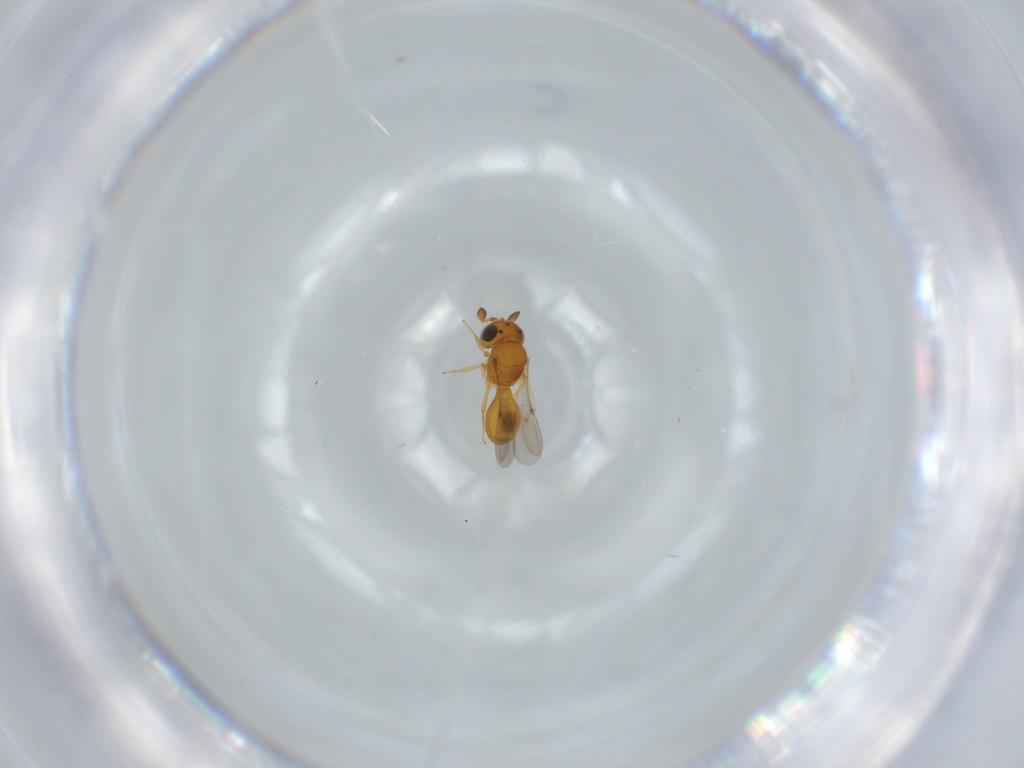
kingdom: Animalia
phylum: Arthropoda
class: Insecta
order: Hymenoptera
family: Scelionidae
